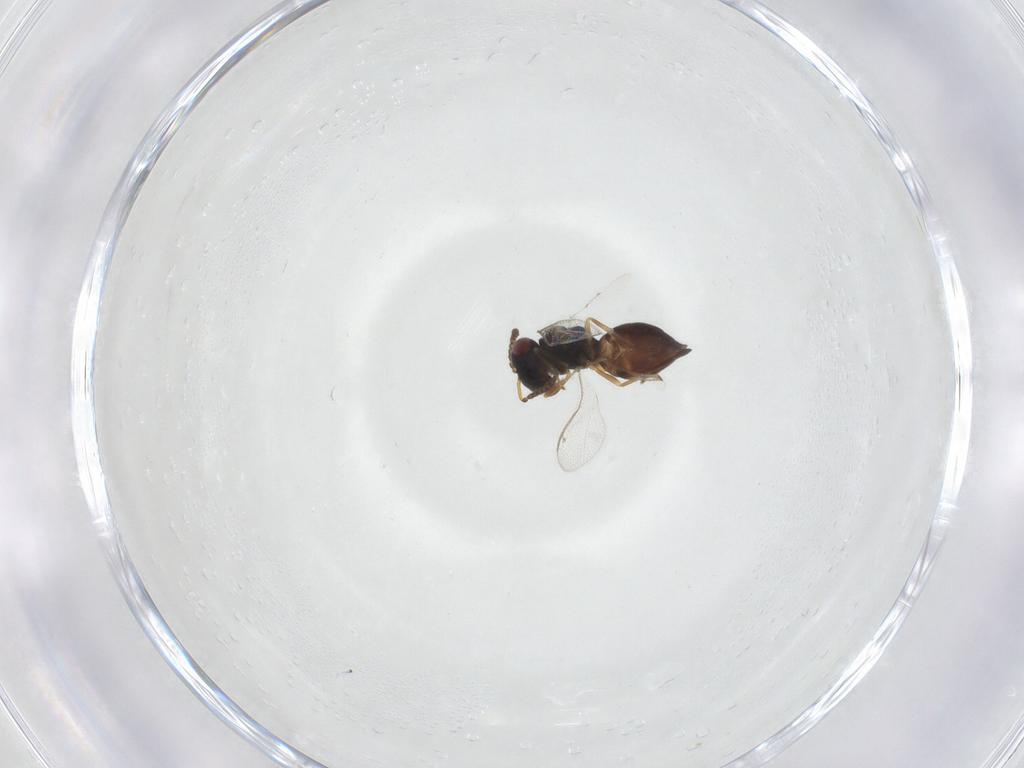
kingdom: Animalia
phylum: Arthropoda
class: Insecta
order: Hymenoptera
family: Pteromalidae
